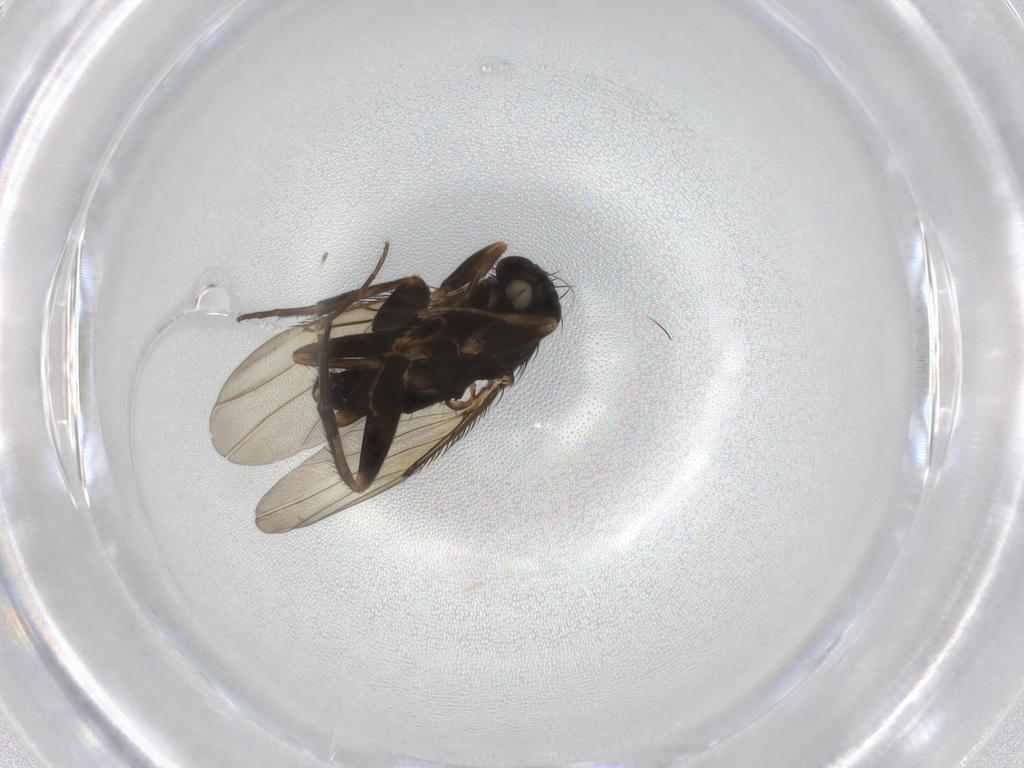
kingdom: Animalia
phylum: Arthropoda
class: Insecta
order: Diptera
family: Phoridae
